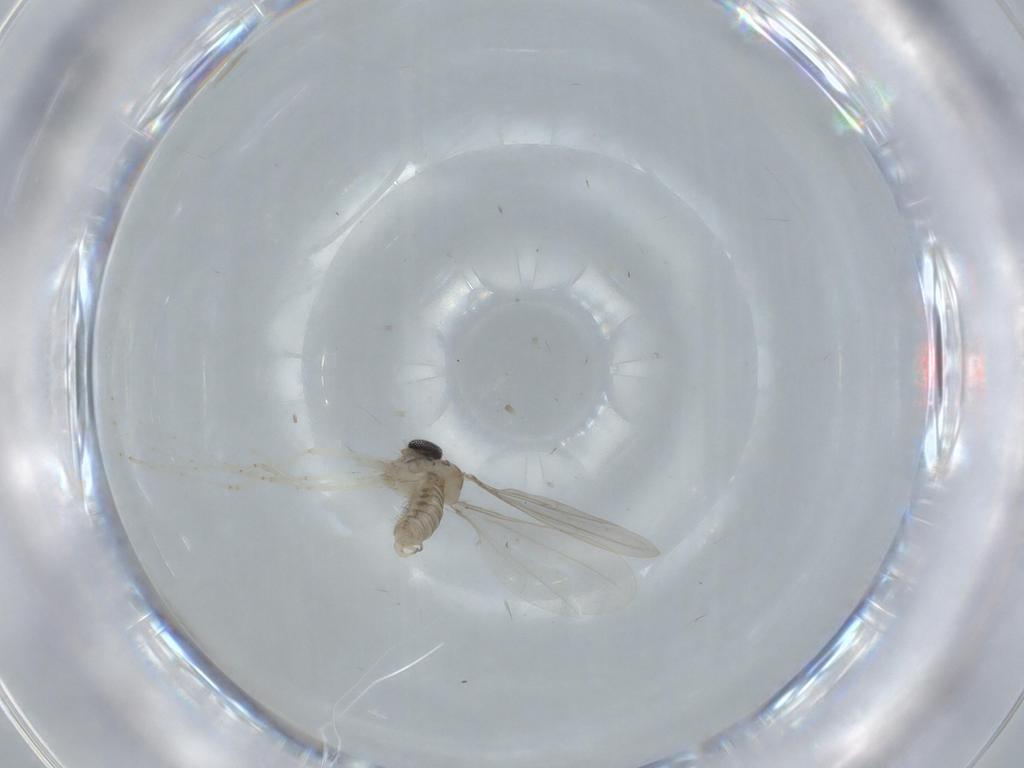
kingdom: Animalia
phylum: Arthropoda
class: Insecta
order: Diptera
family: Cecidomyiidae
